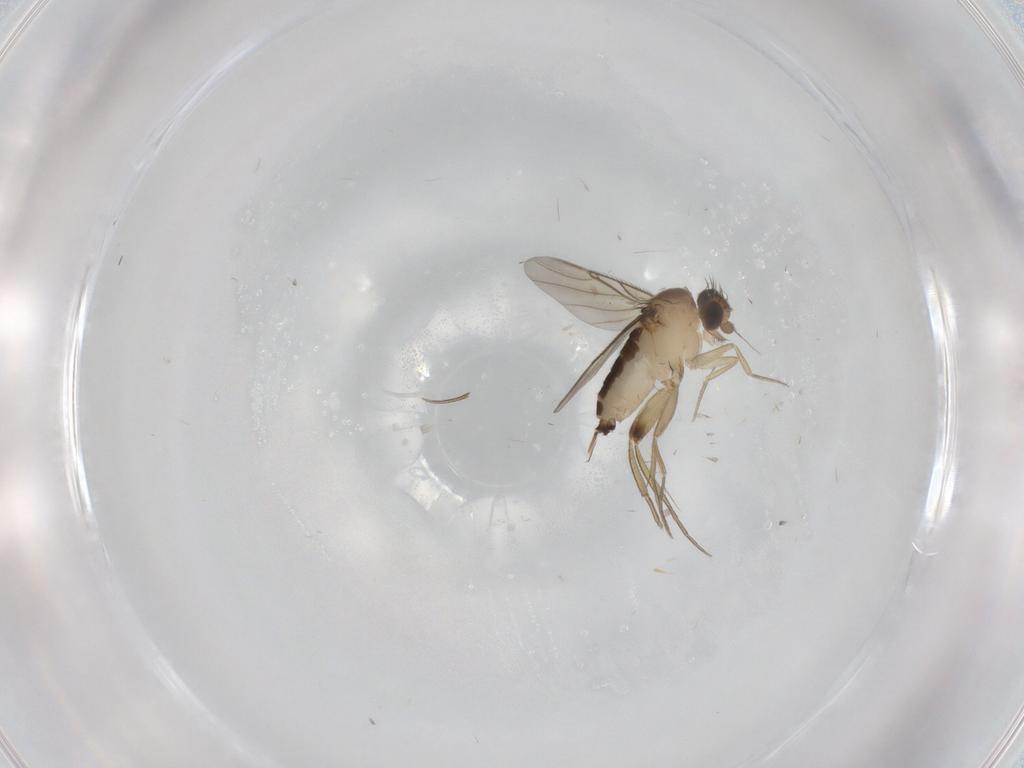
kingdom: Animalia
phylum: Arthropoda
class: Insecta
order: Diptera
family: Phoridae
